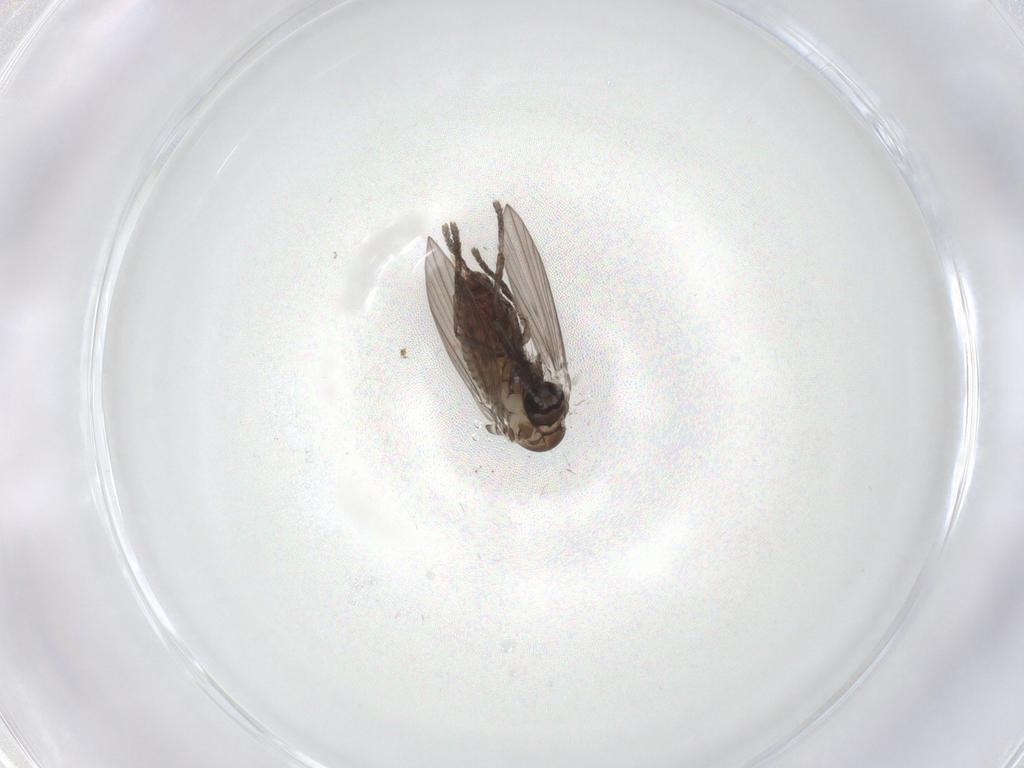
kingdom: Animalia
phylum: Arthropoda
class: Insecta
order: Diptera
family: Psychodidae
